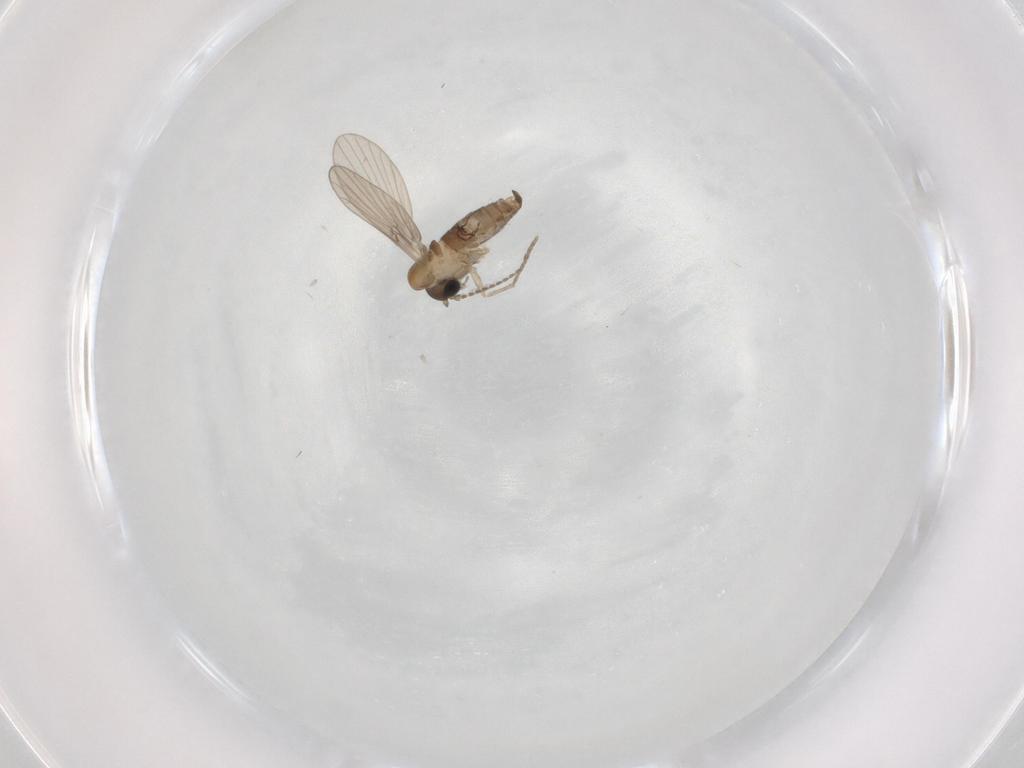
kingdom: Animalia
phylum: Arthropoda
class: Insecta
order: Diptera
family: Psychodidae
